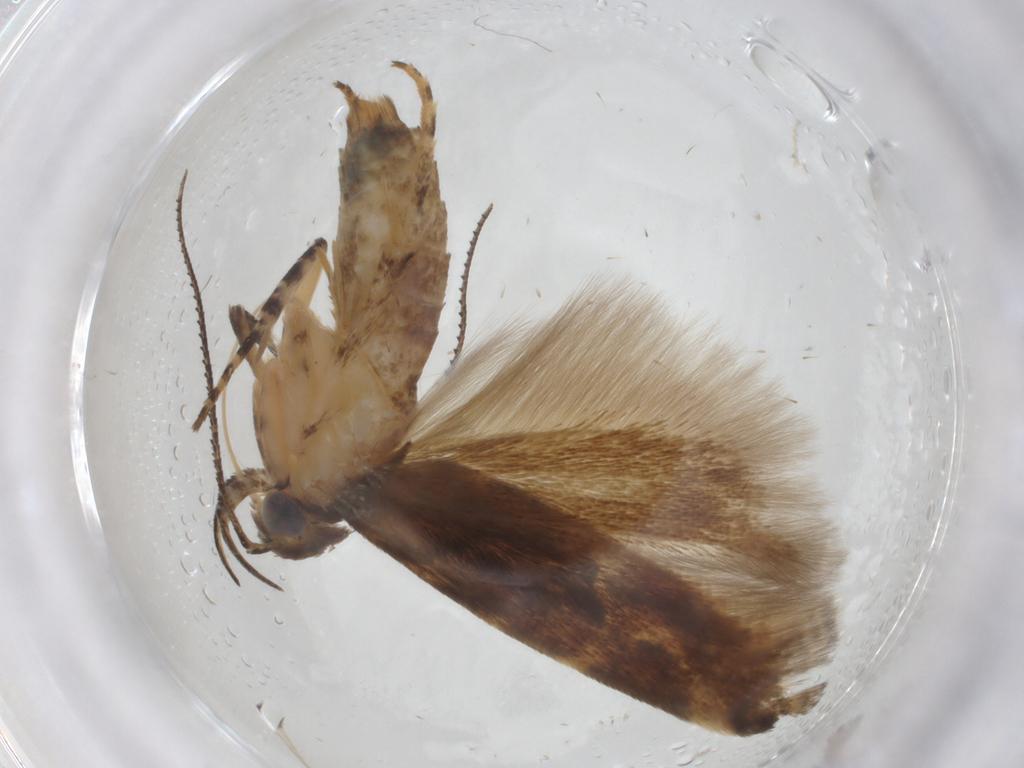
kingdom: Animalia
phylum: Arthropoda
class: Insecta
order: Lepidoptera
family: Gelechiidae
